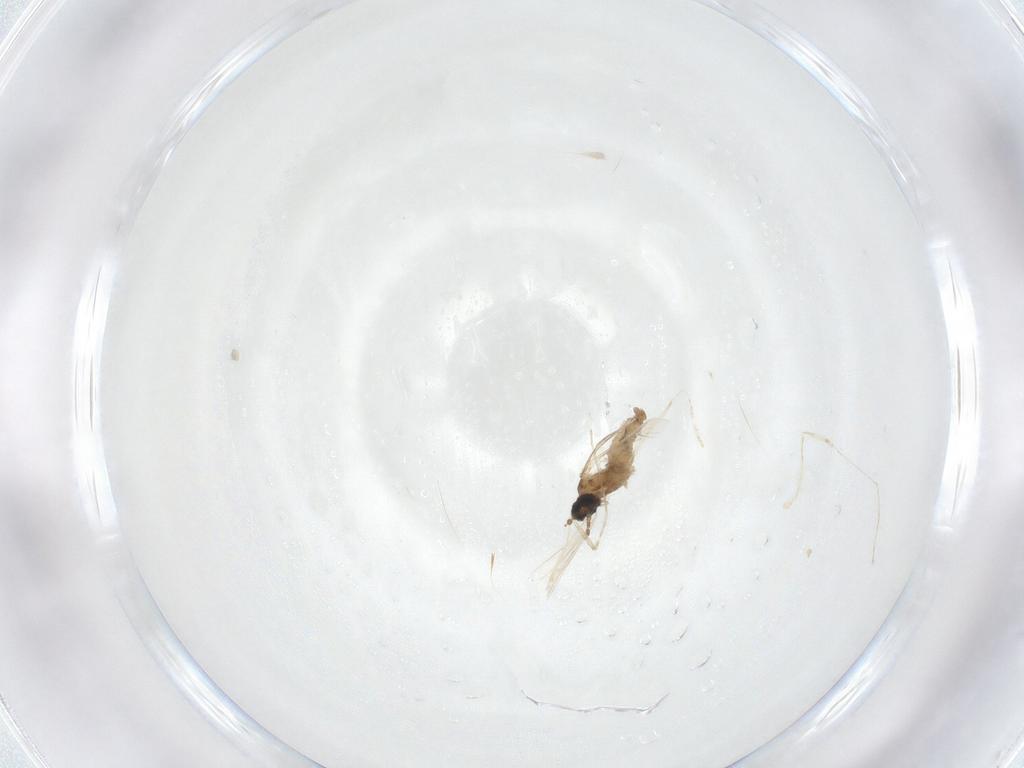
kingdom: Animalia
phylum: Arthropoda
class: Insecta
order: Diptera
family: Cecidomyiidae
